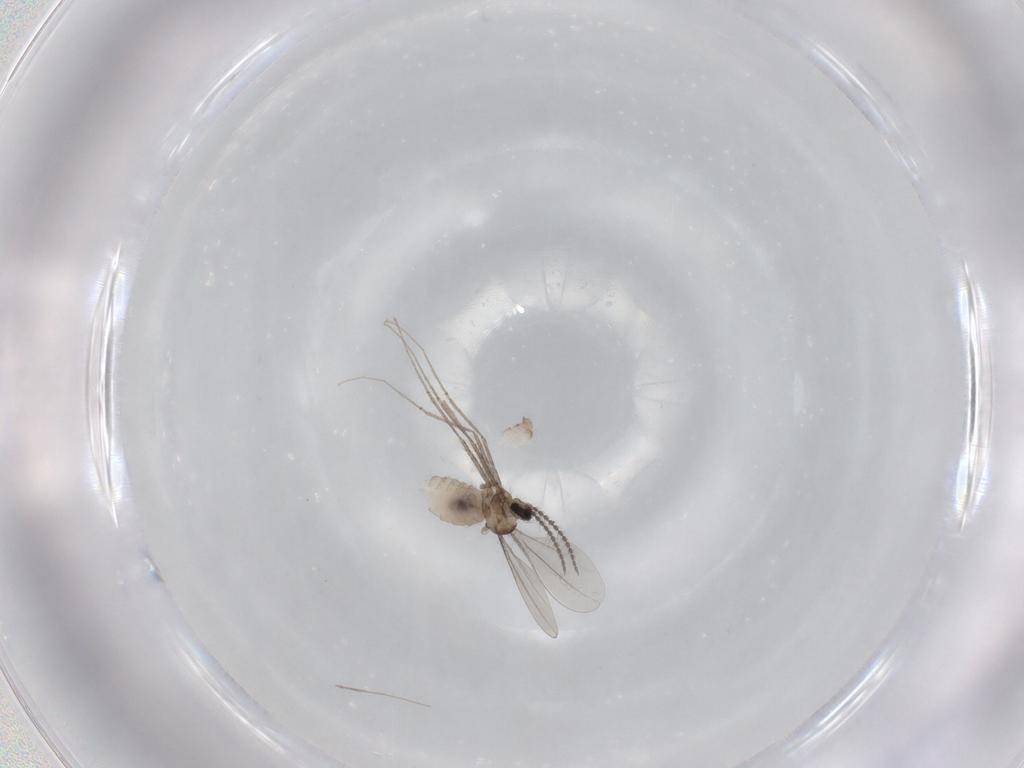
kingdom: Animalia
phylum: Arthropoda
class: Insecta
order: Diptera
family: Cecidomyiidae
